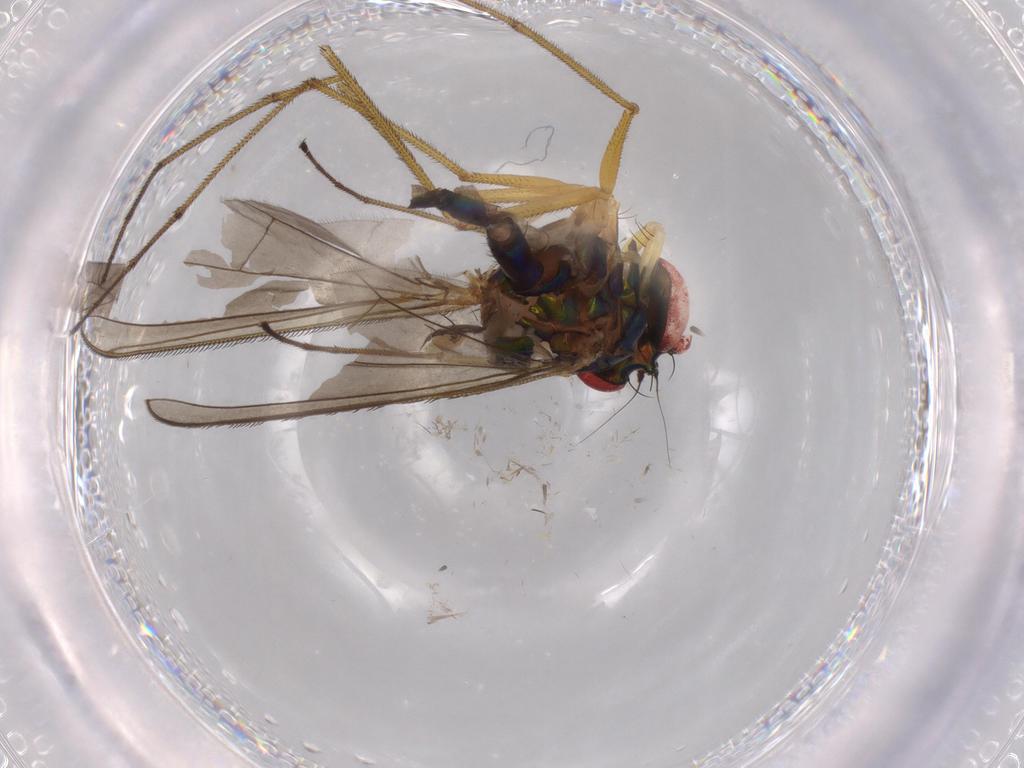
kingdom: Animalia
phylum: Arthropoda
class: Insecta
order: Diptera
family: Dolichopodidae
